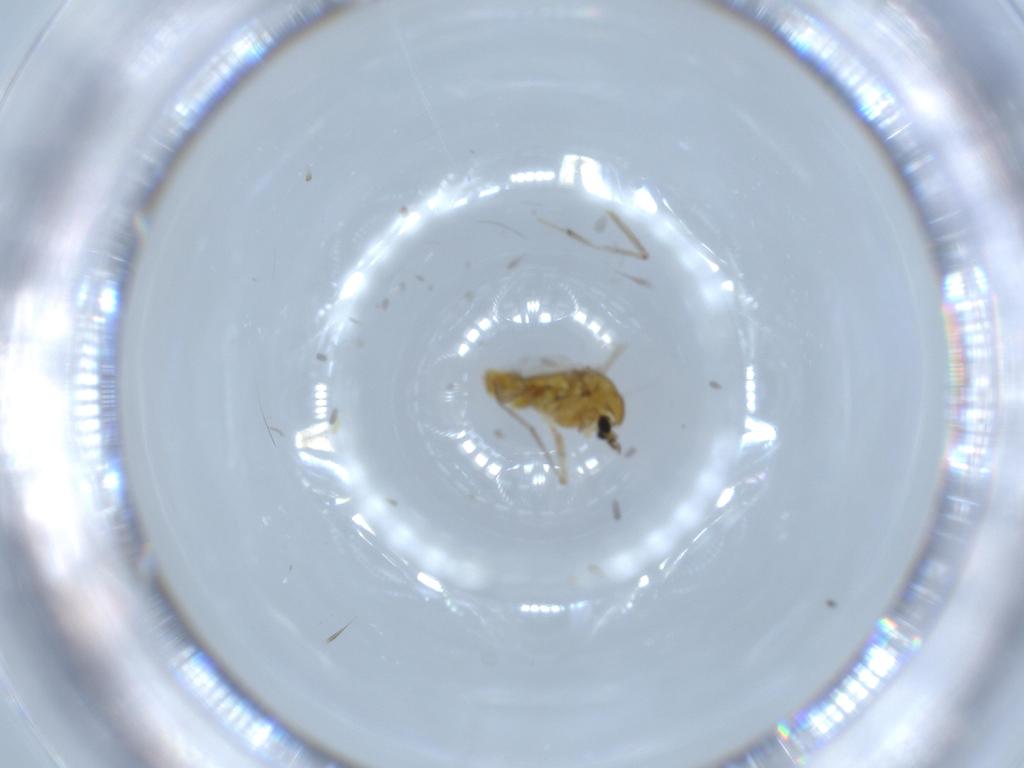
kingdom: Animalia
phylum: Arthropoda
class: Insecta
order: Diptera
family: Chironomidae
